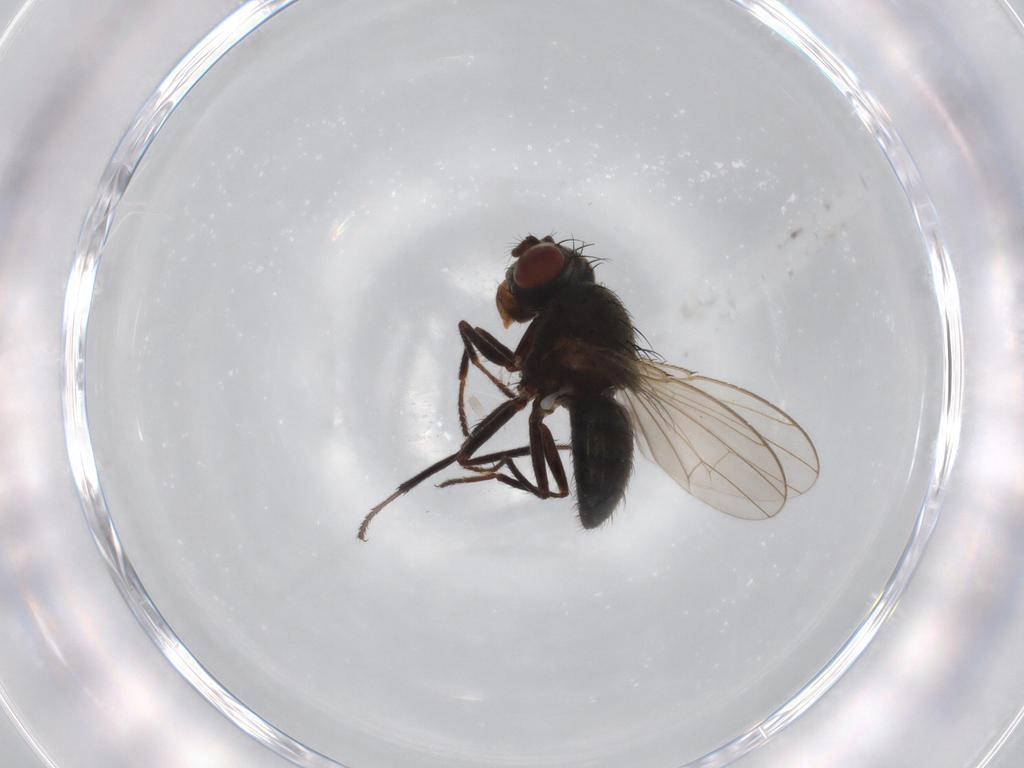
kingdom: Animalia
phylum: Arthropoda
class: Insecta
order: Diptera
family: Ephydridae
